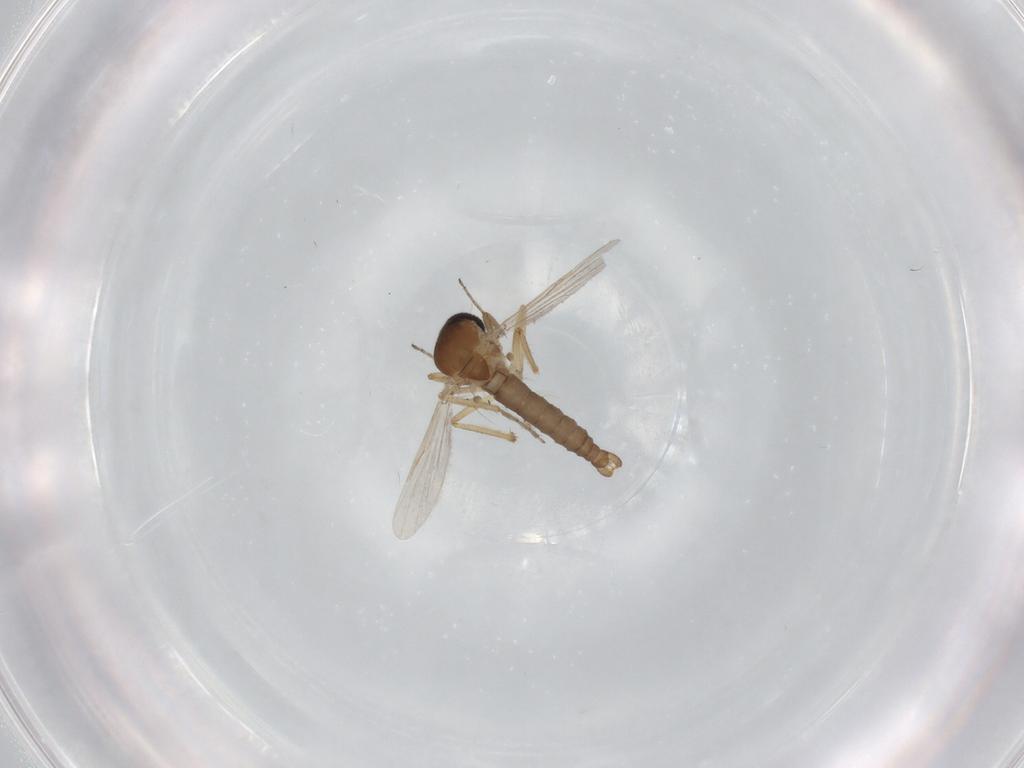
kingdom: Animalia
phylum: Arthropoda
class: Insecta
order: Diptera
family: Ceratopogonidae
